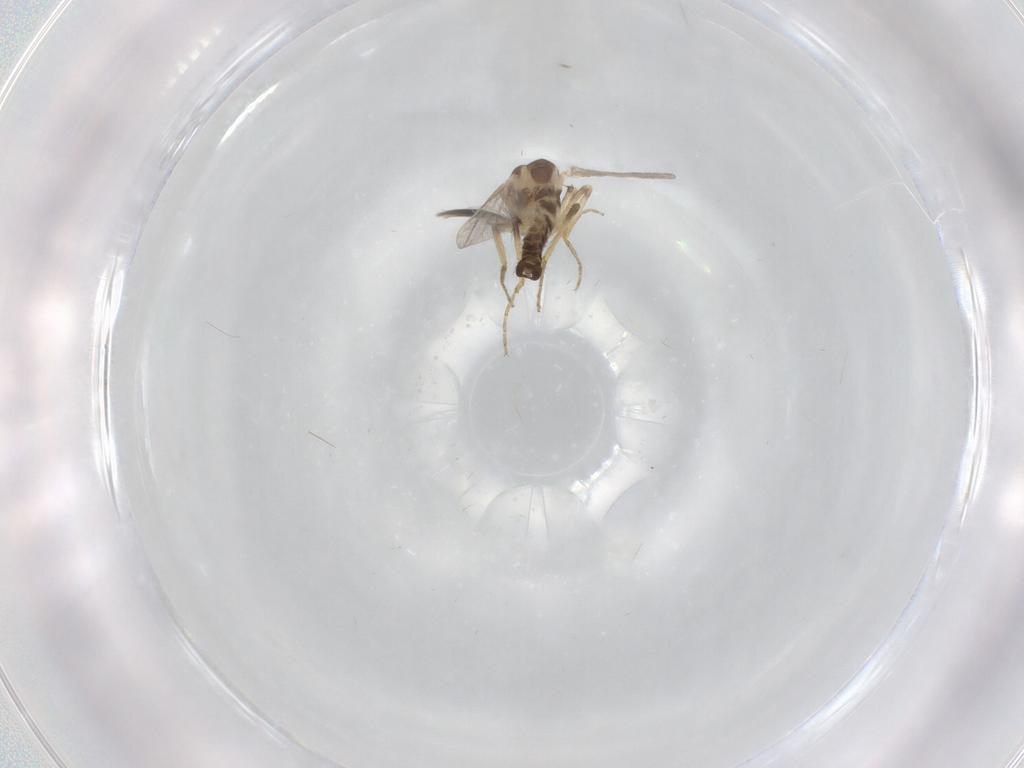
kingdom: Animalia
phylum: Arthropoda
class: Insecta
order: Diptera
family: Ceratopogonidae
